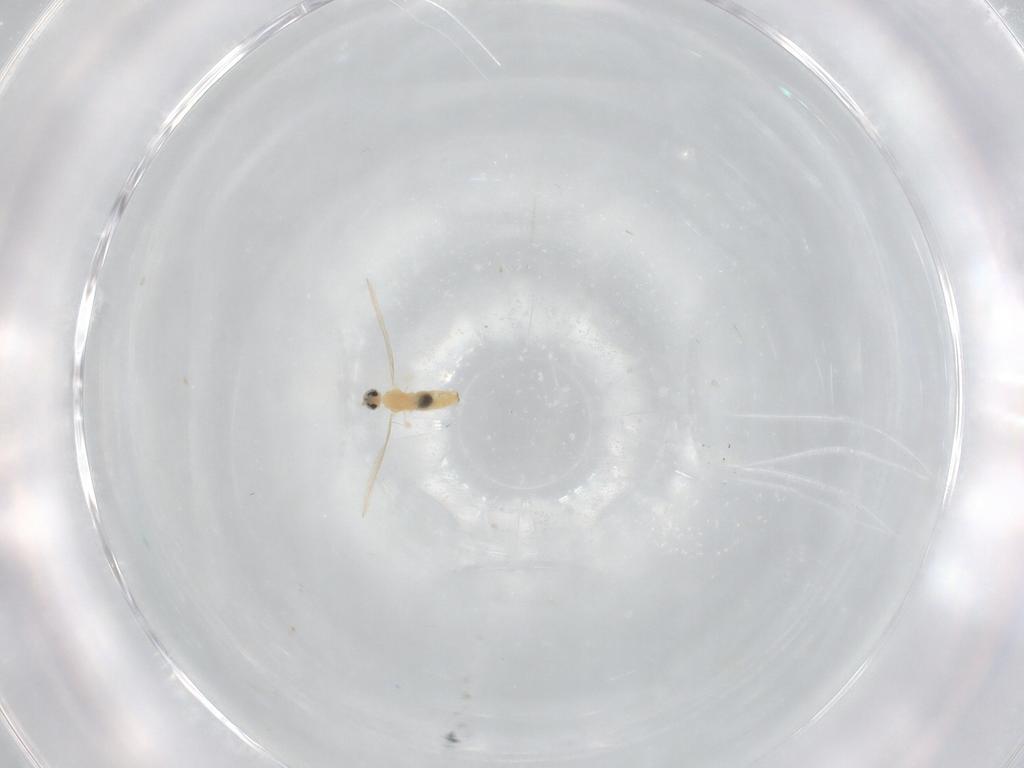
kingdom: Animalia
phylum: Arthropoda
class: Insecta
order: Diptera
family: Cecidomyiidae
